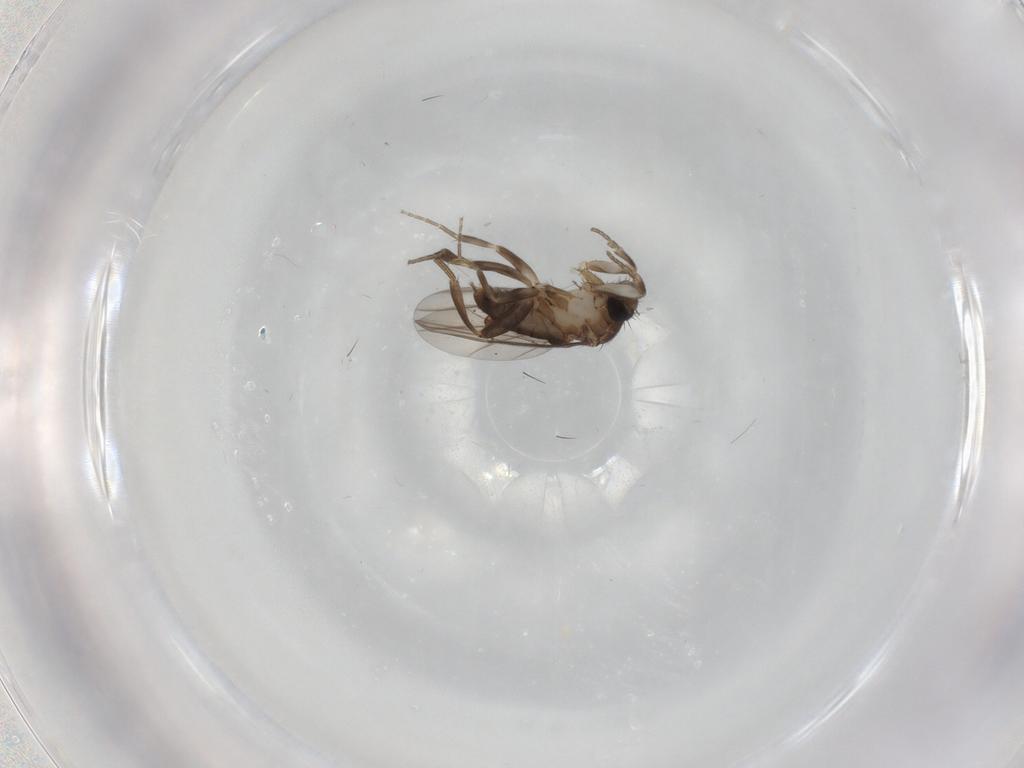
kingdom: Animalia
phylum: Arthropoda
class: Insecta
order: Diptera
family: Phoridae
